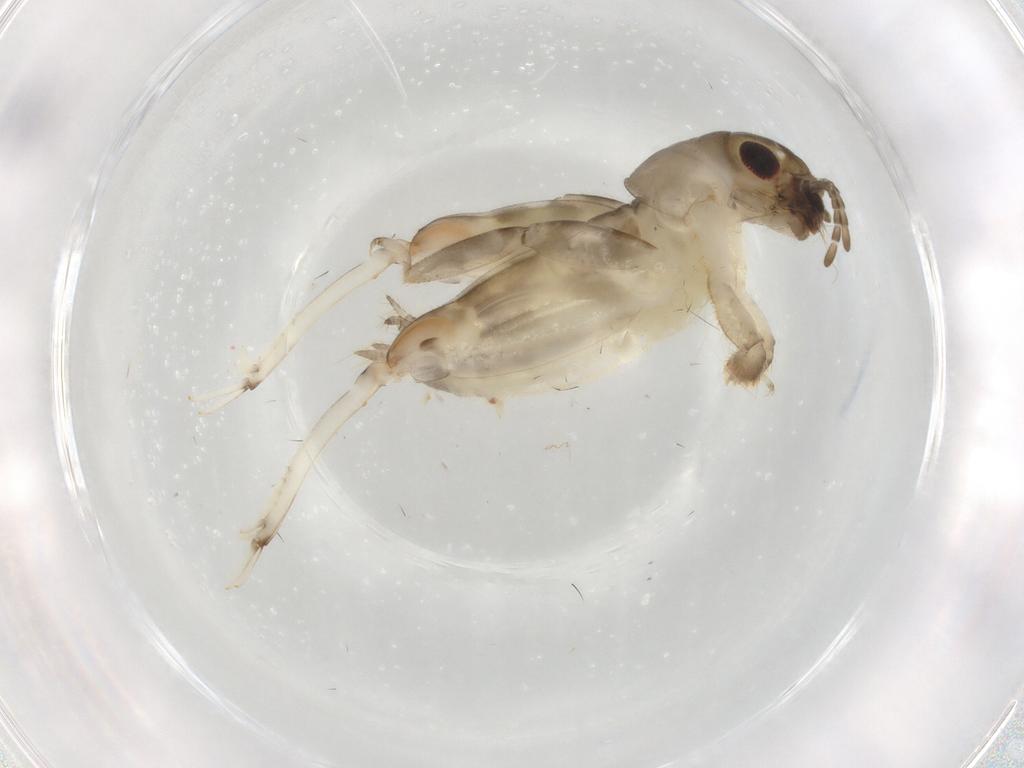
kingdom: Animalia
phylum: Arthropoda
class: Insecta
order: Orthoptera
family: Tridactylidae
